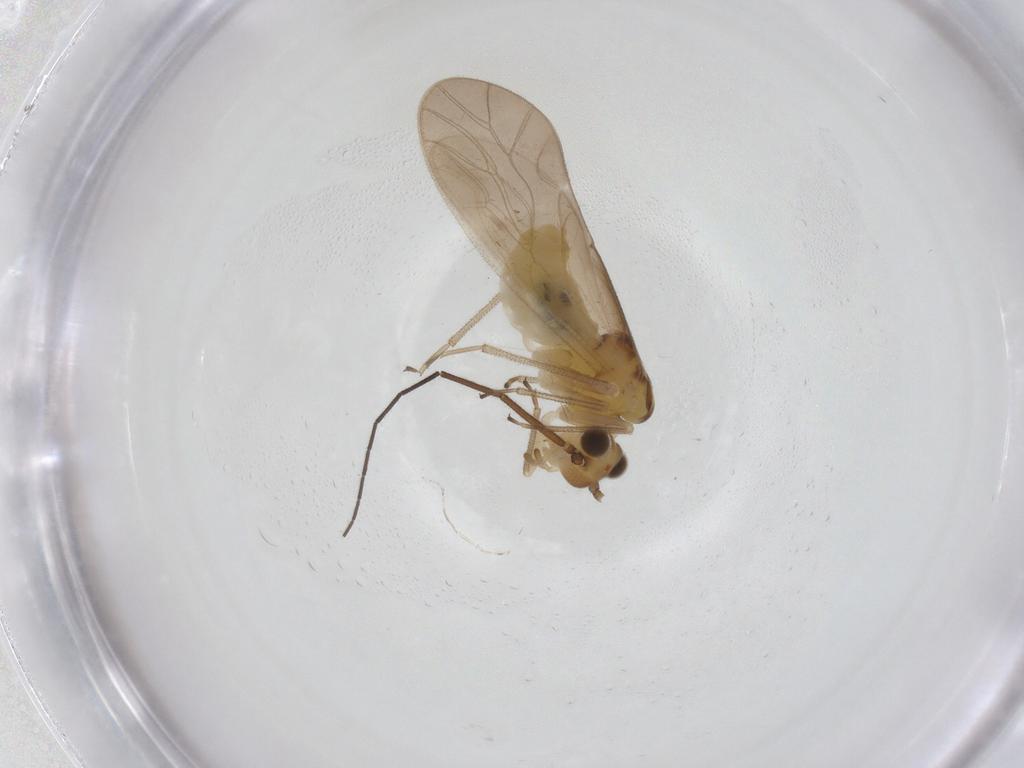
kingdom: Animalia
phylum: Arthropoda
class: Insecta
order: Psocodea
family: Caeciliusidae
